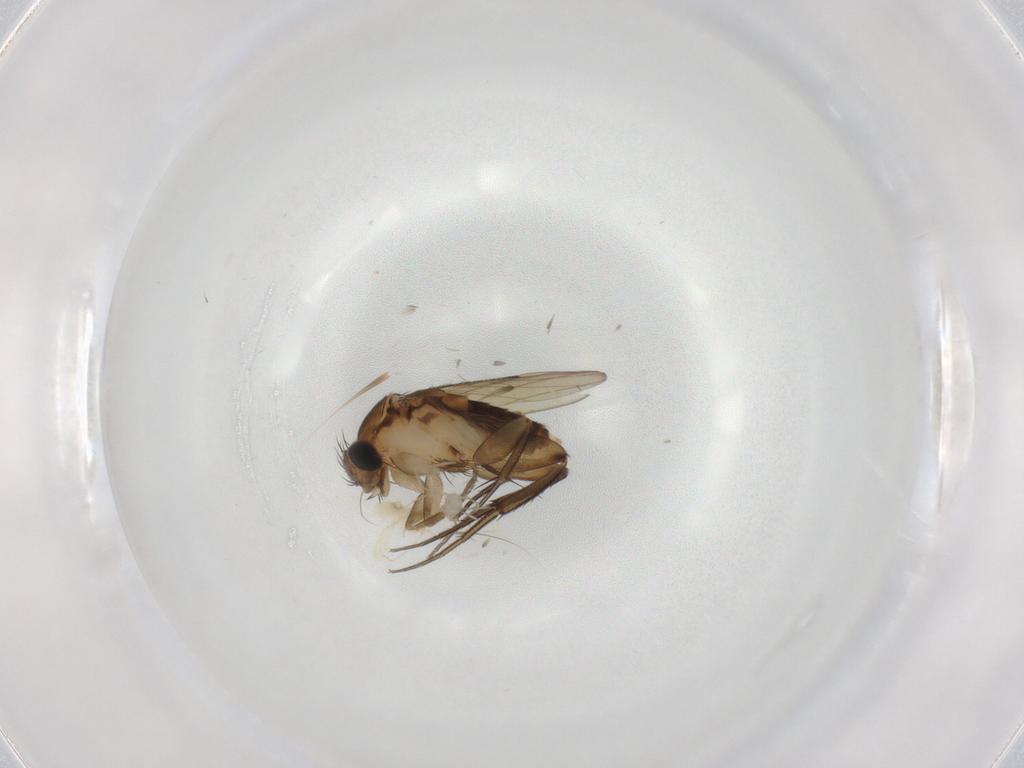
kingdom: Animalia
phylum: Arthropoda
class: Insecta
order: Diptera
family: Phoridae
